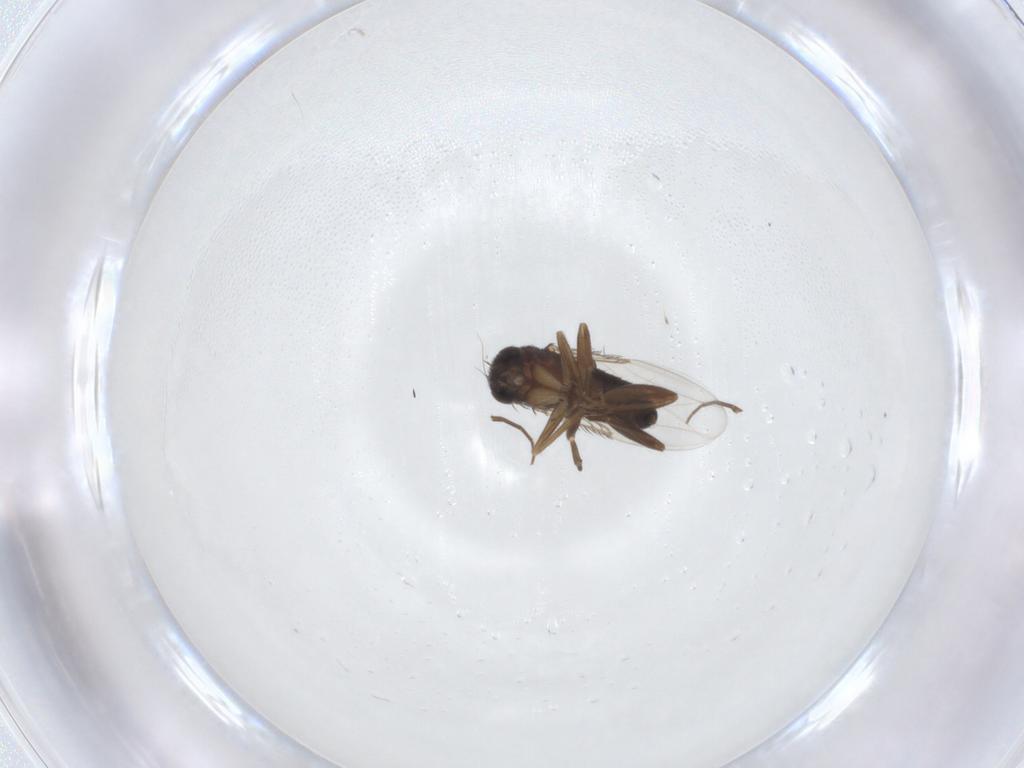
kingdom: Animalia
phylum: Arthropoda
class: Insecta
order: Diptera
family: Phoridae
